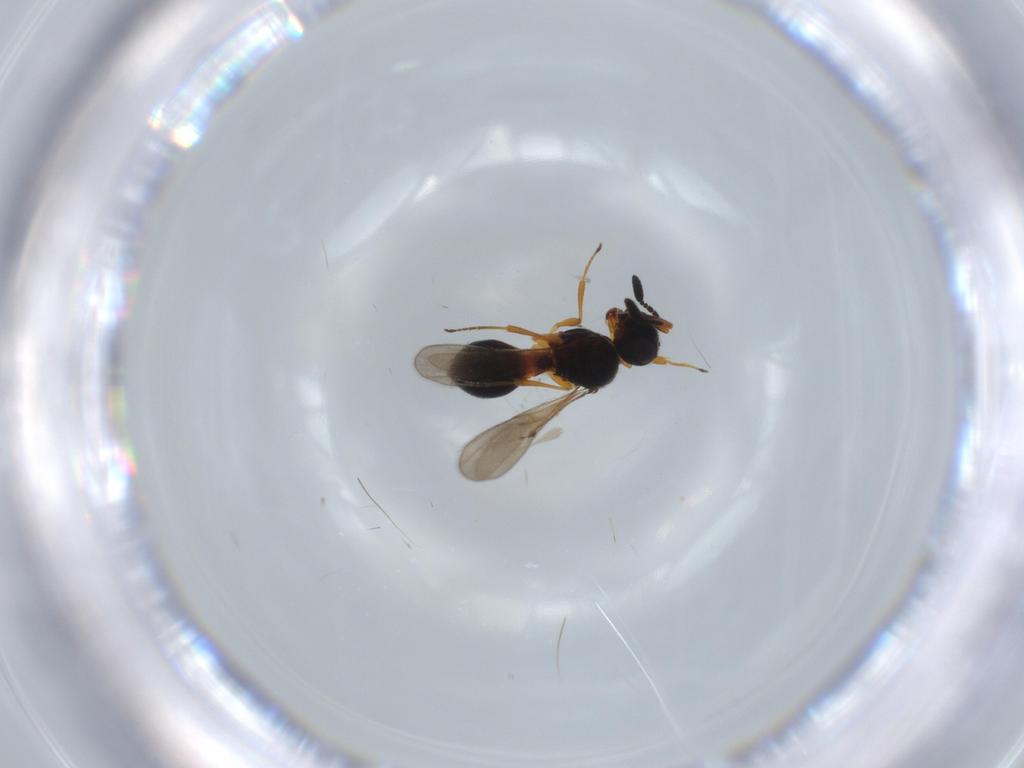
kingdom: Animalia
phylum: Arthropoda
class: Insecta
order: Hymenoptera
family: Scelionidae
